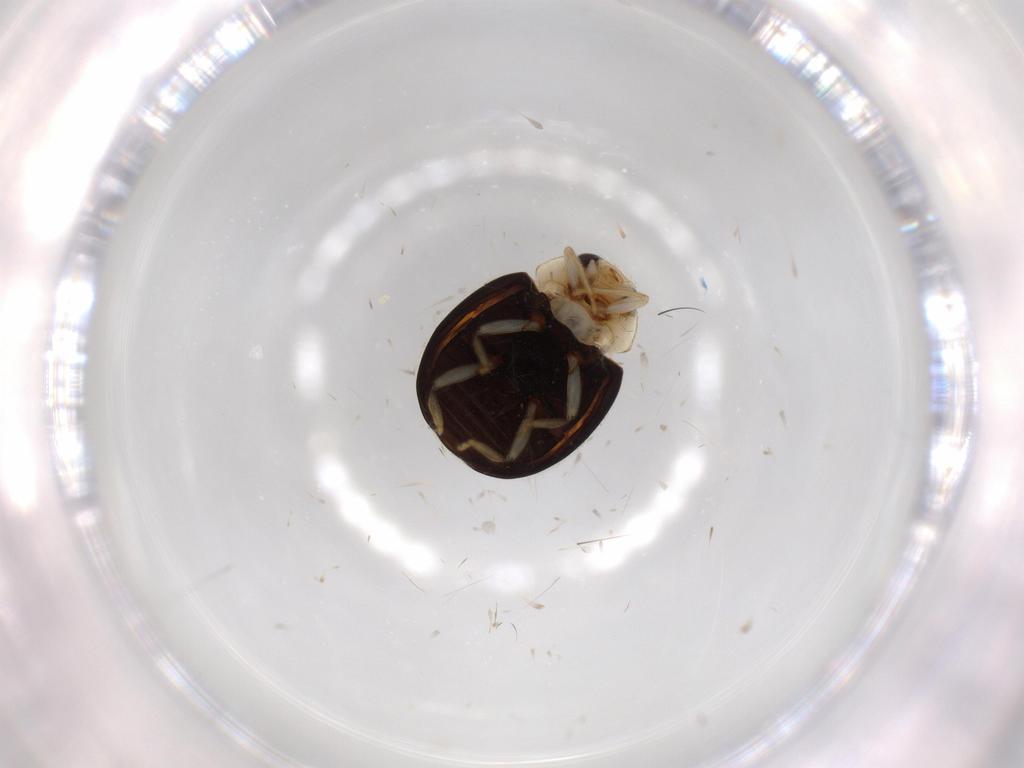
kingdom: Animalia
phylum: Arthropoda
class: Insecta
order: Coleoptera
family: Coccinellidae
